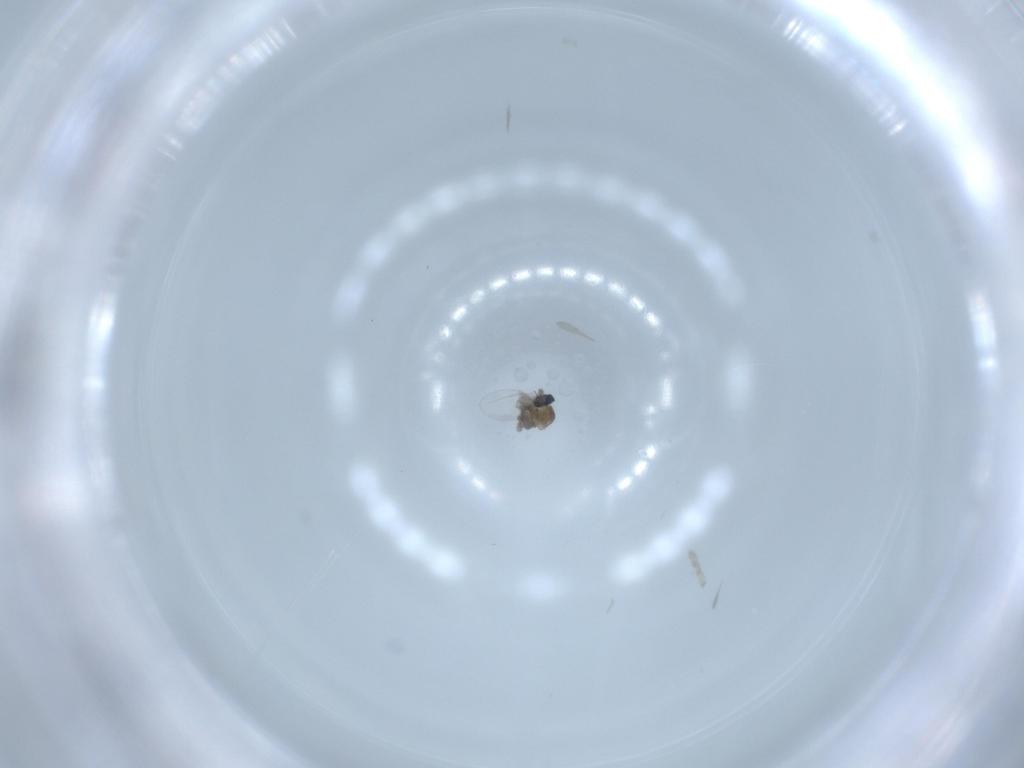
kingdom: Animalia
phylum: Arthropoda
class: Insecta
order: Diptera
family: Cecidomyiidae
